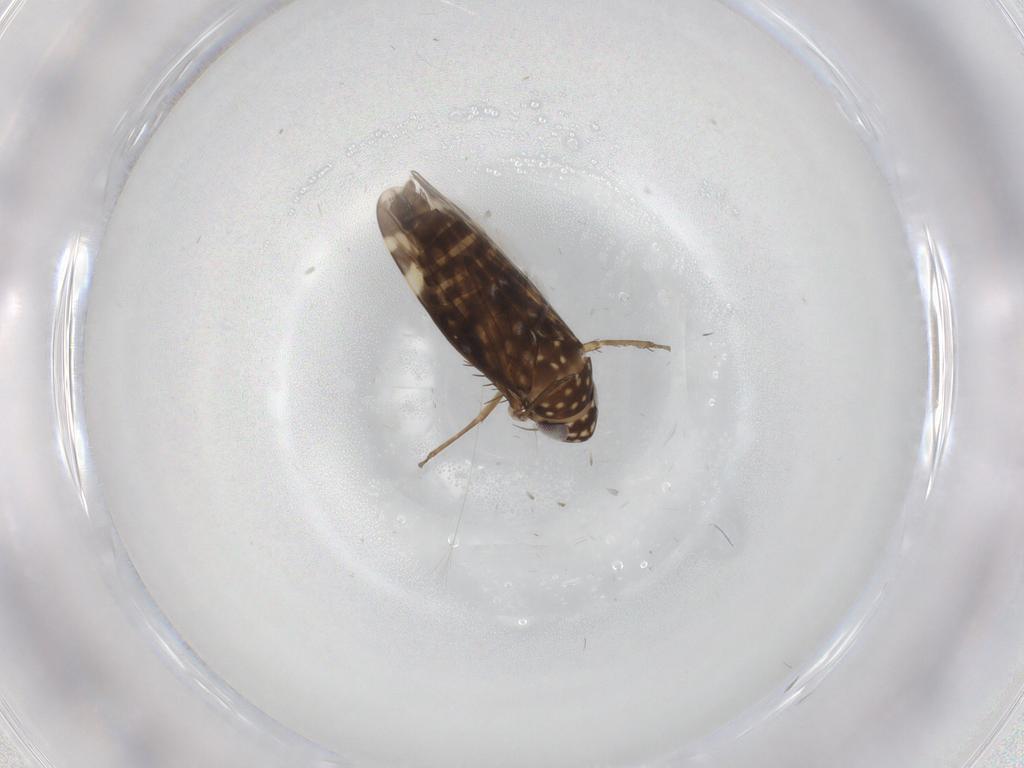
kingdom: Animalia
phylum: Arthropoda
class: Insecta
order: Hemiptera
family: Cicadellidae
